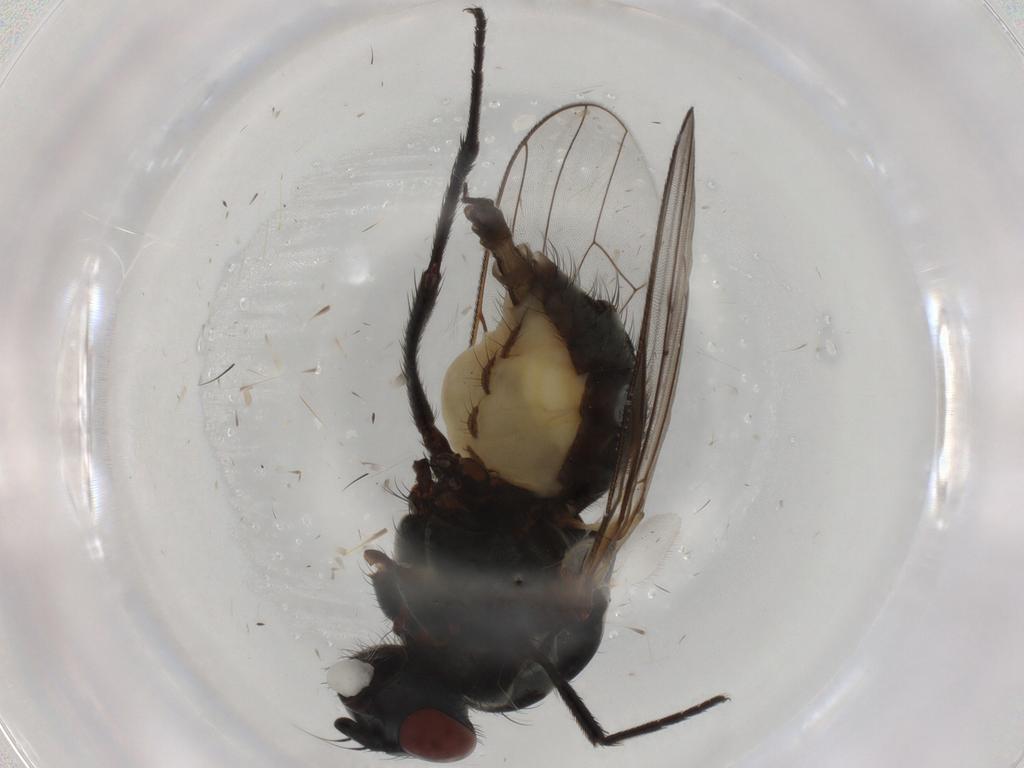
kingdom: Animalia
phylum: Arthropoda
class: Insecta
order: Diptera
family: Anthomyiidae
